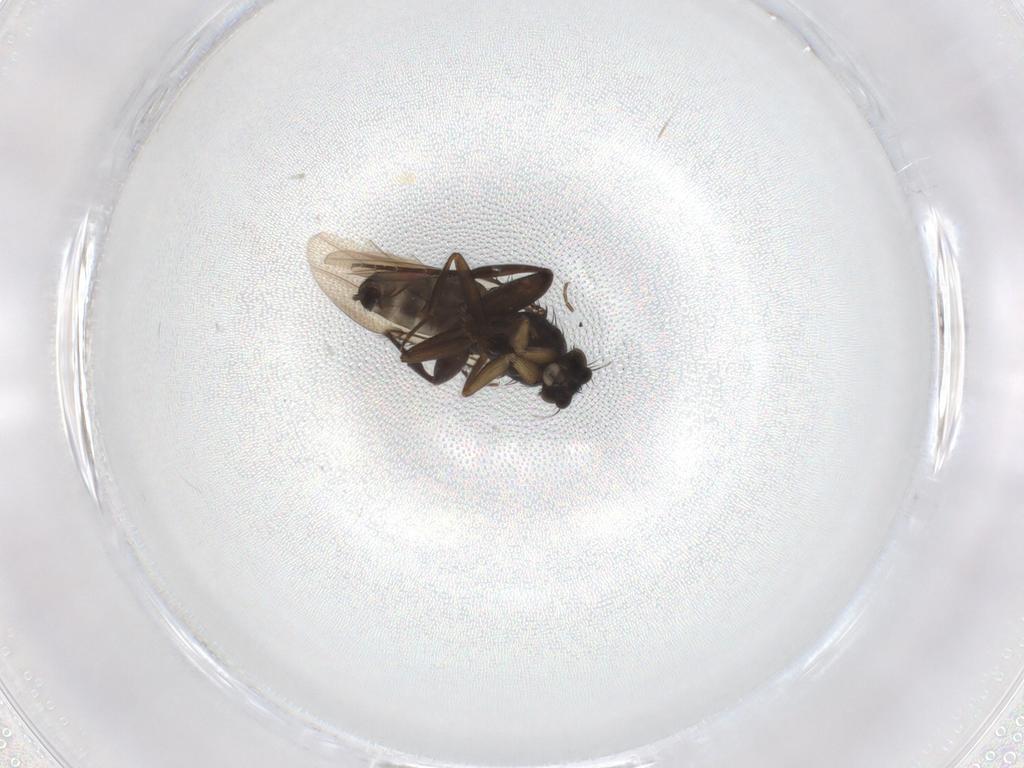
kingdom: Animalia
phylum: Arthropoda
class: Insecta
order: Diptera
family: Phoridae
